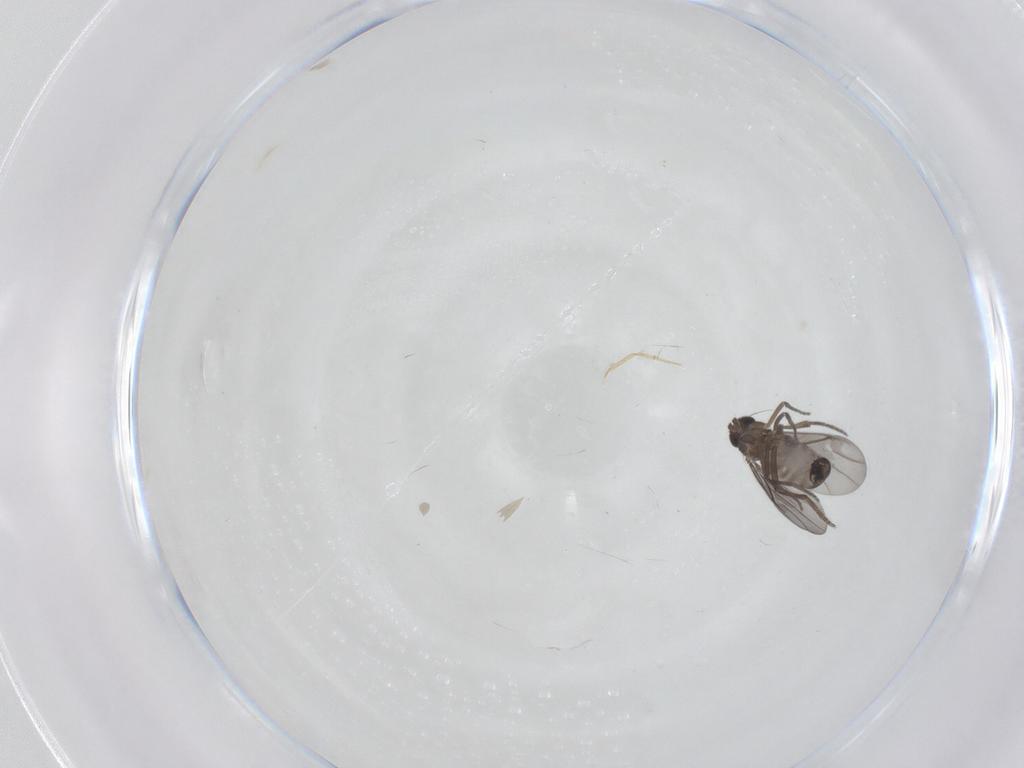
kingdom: Animalia
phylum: Arthropoda
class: Insecta
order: Diptera
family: Phoridae
